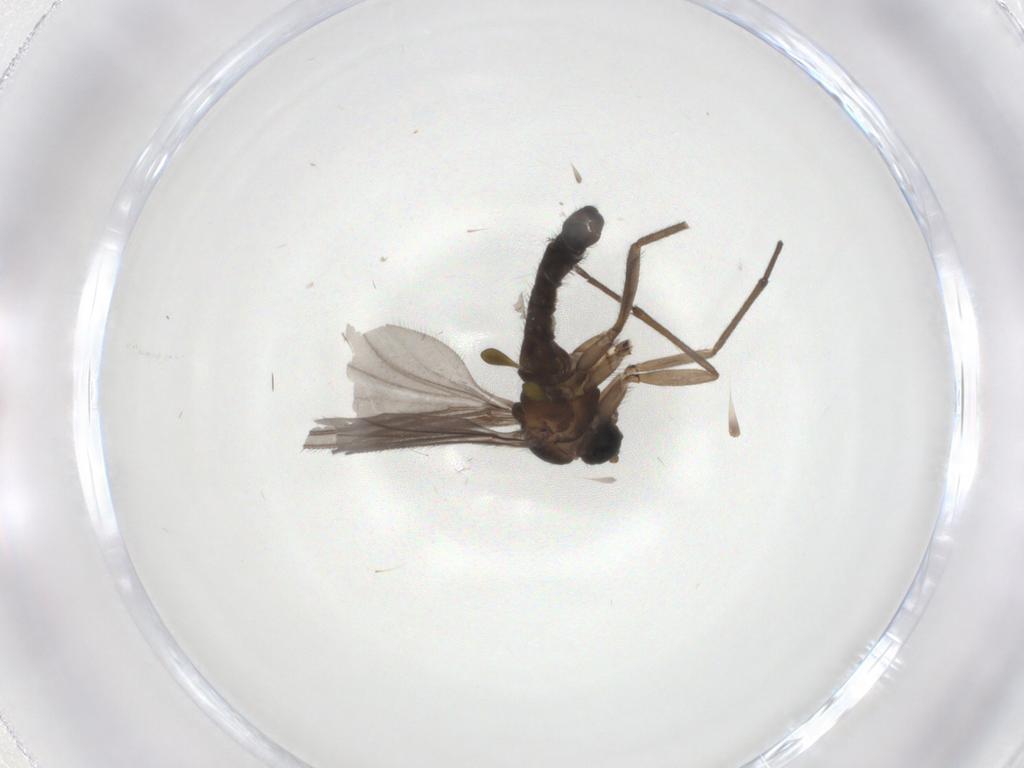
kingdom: Animalia
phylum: Arthropoda
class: Insecta
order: Diptera
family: Sciaridae
